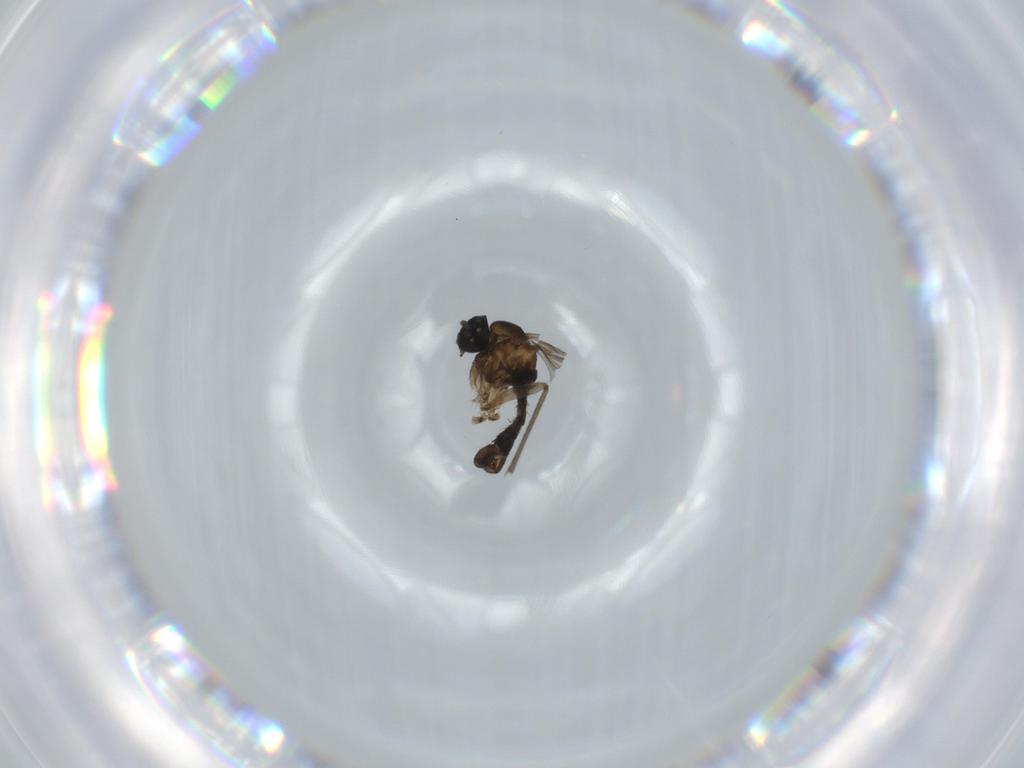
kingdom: Animalia
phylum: Arthropoda
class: Insecta
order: Diptera
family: Sciaridae
